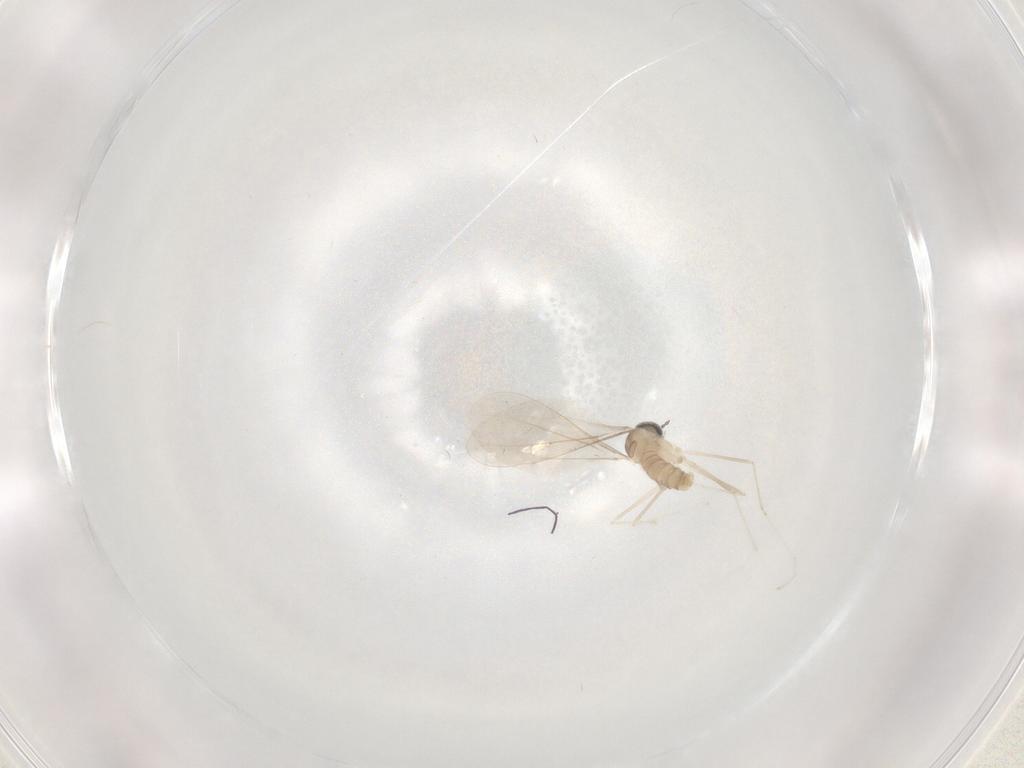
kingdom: Animalia
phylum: Arthropoda
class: Insecta
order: Diptera
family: Cecidomyiidae
